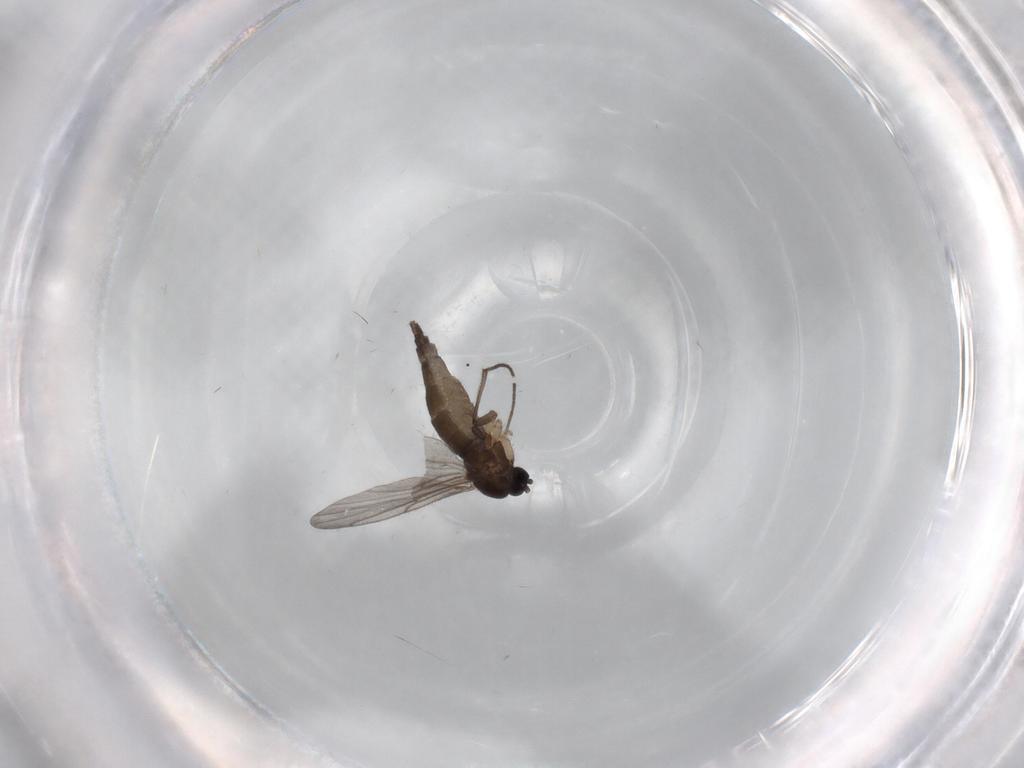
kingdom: Animalia
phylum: Arthropoda
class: Insecta
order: Diptera
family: Sciaridae
